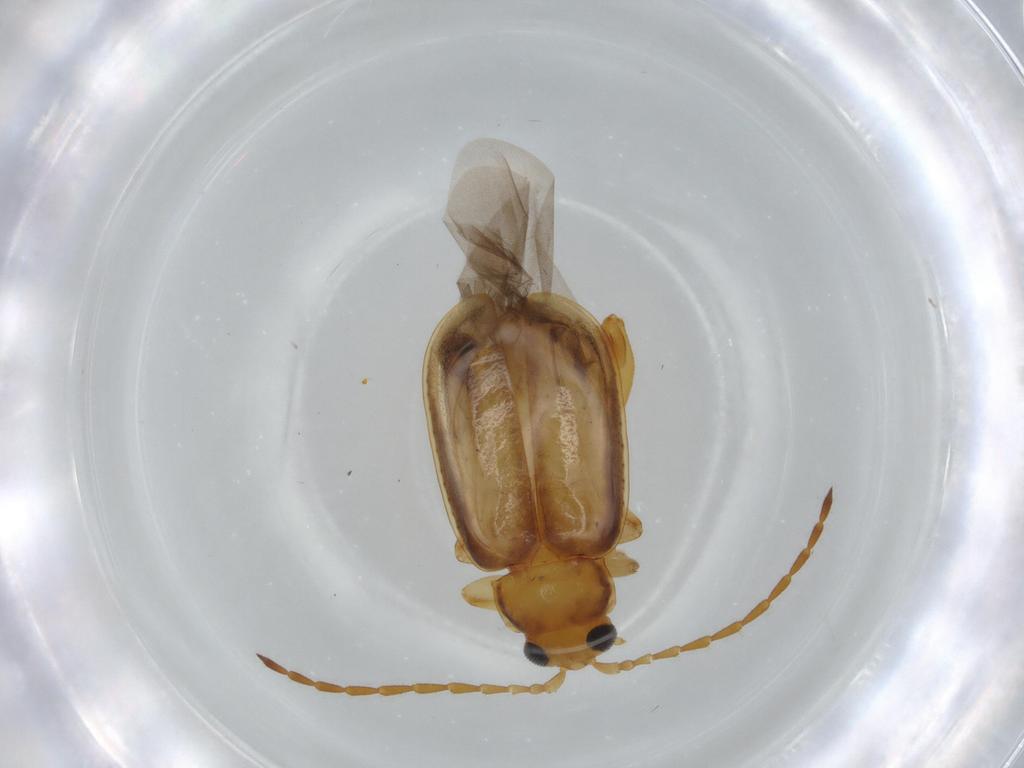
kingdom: Animalia
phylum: Arthropoda
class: Insecta
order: Coleoptera
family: Chrysomelidae
